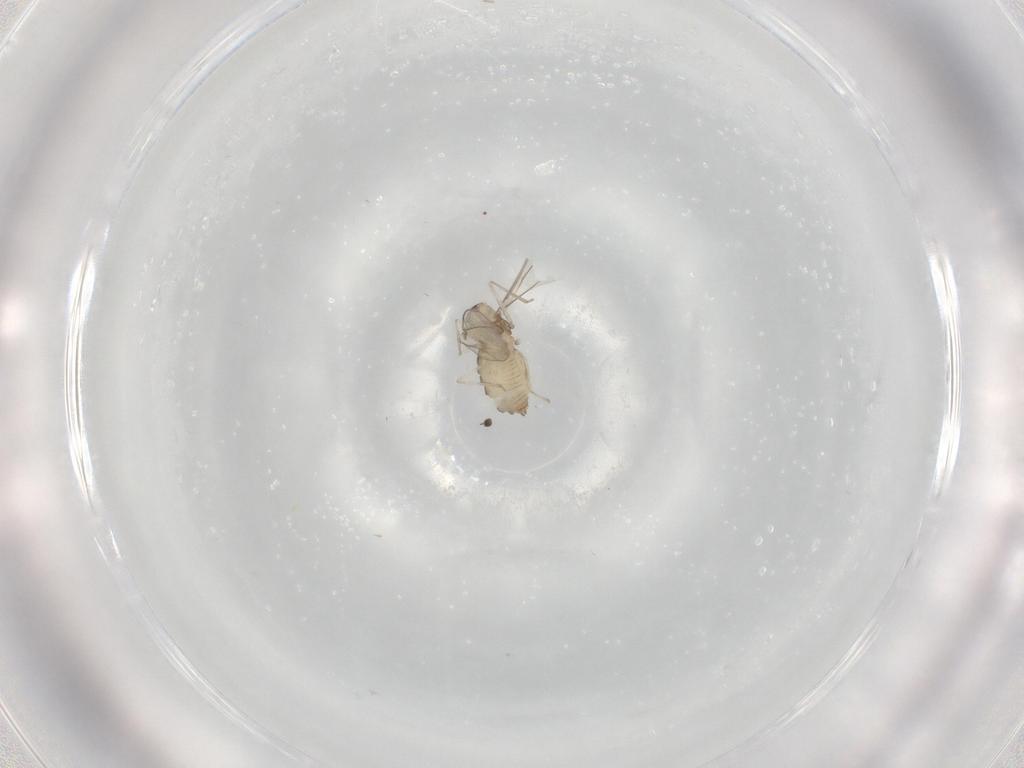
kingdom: Animalia
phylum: Arthropoda
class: Insecta
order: Diptera
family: Cecidomyiidae
